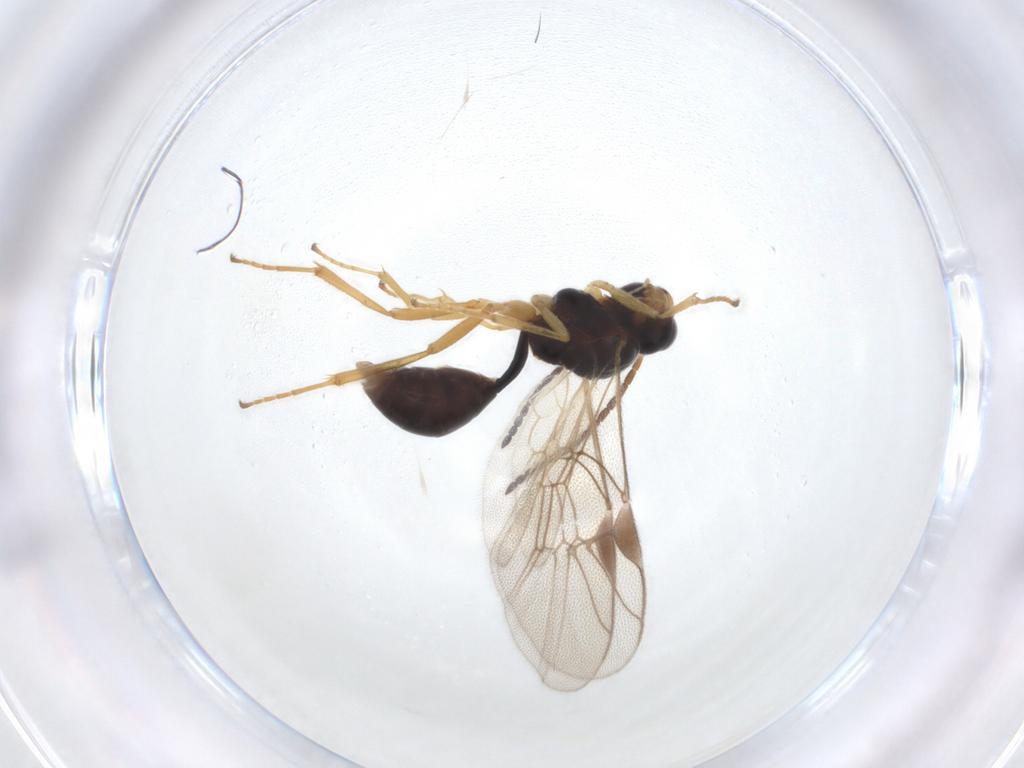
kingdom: Animalia
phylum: Arthropoda
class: Insecta
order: Hymenoptera
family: Ichneumonidae
